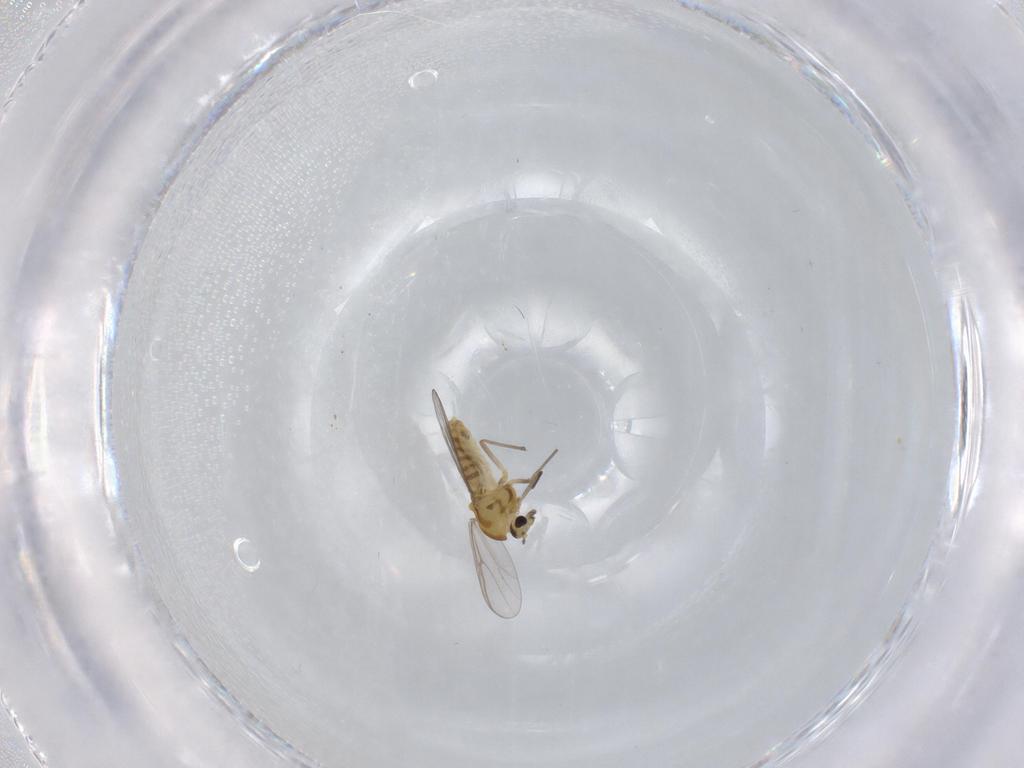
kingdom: Animalia
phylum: Arthropoda
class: Insecta
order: Diptera
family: Chironomidae
